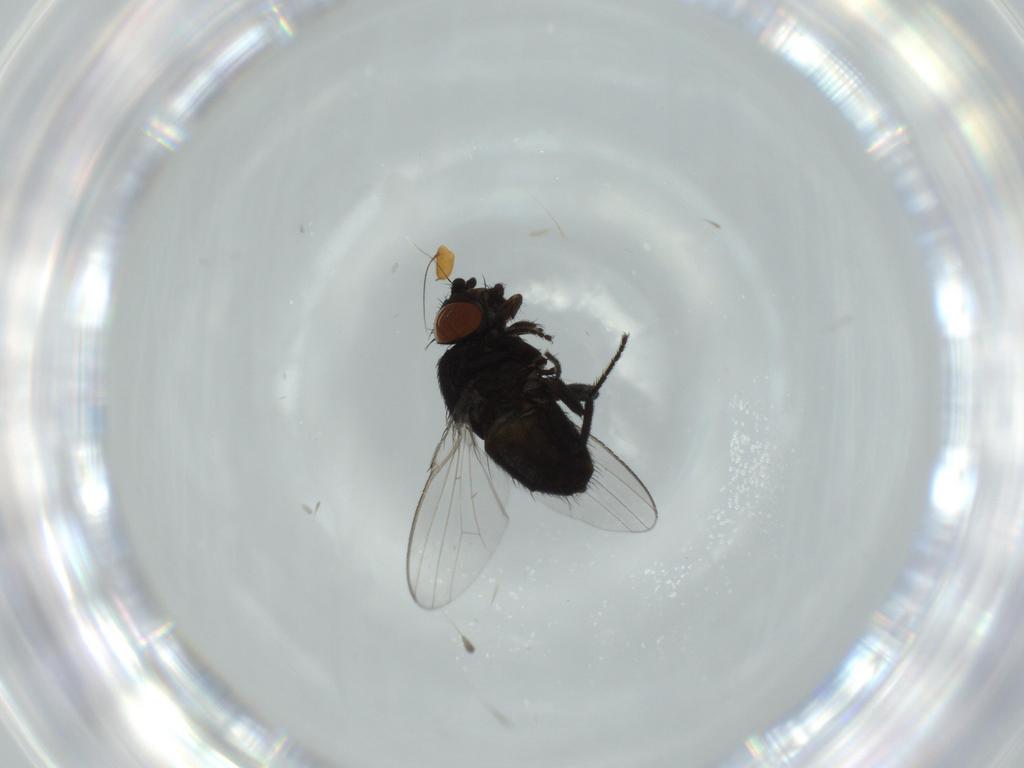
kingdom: Animalia
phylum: Arthropoda
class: Insecta
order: Diptera
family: Milichiidae
